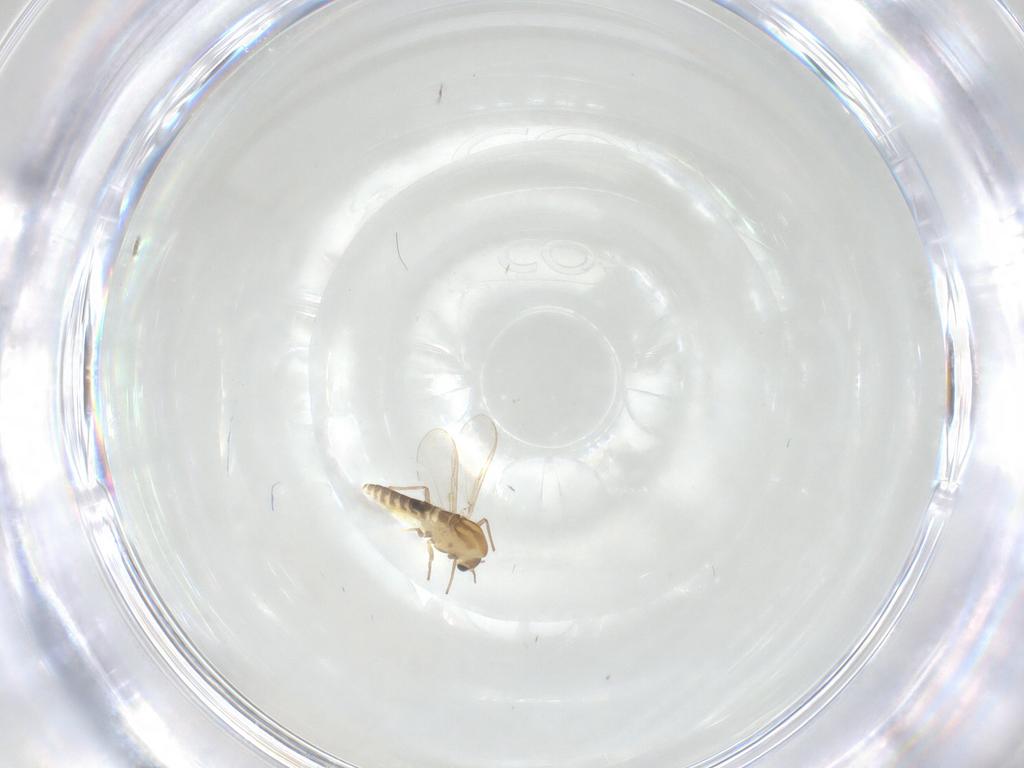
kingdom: Animalia
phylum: Arthropoda
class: Insecta
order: Diptera
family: Chironomidae
